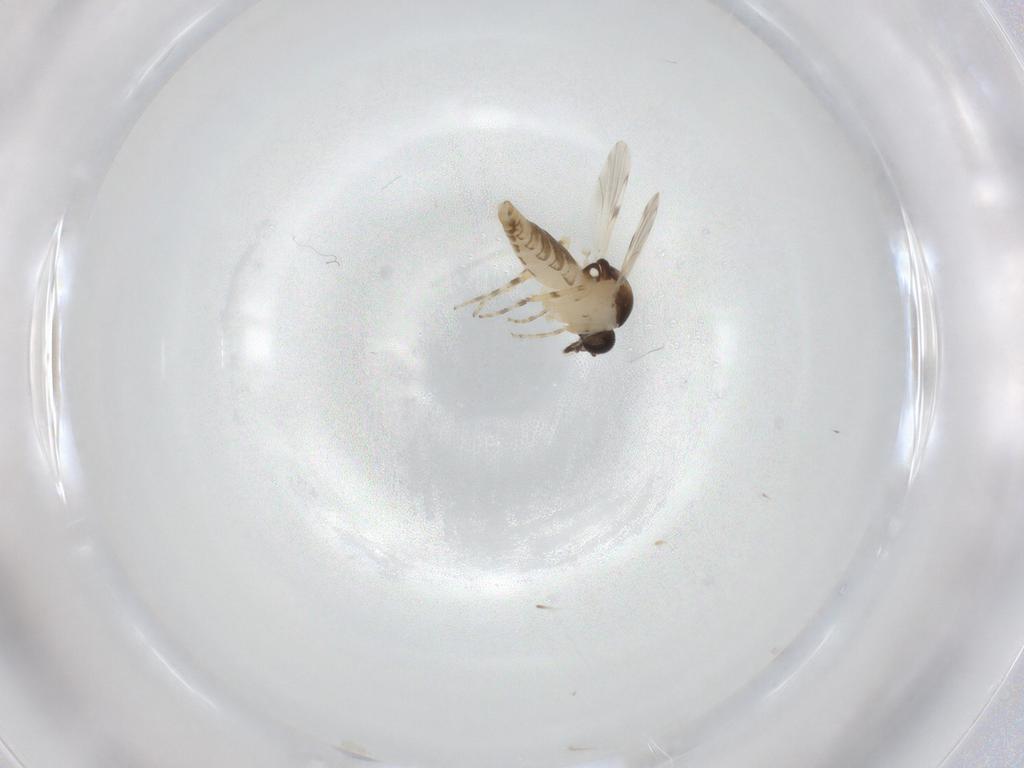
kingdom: Animalia
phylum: Arthropoda
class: Insecta
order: Diptera
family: Ceratopogonidae
